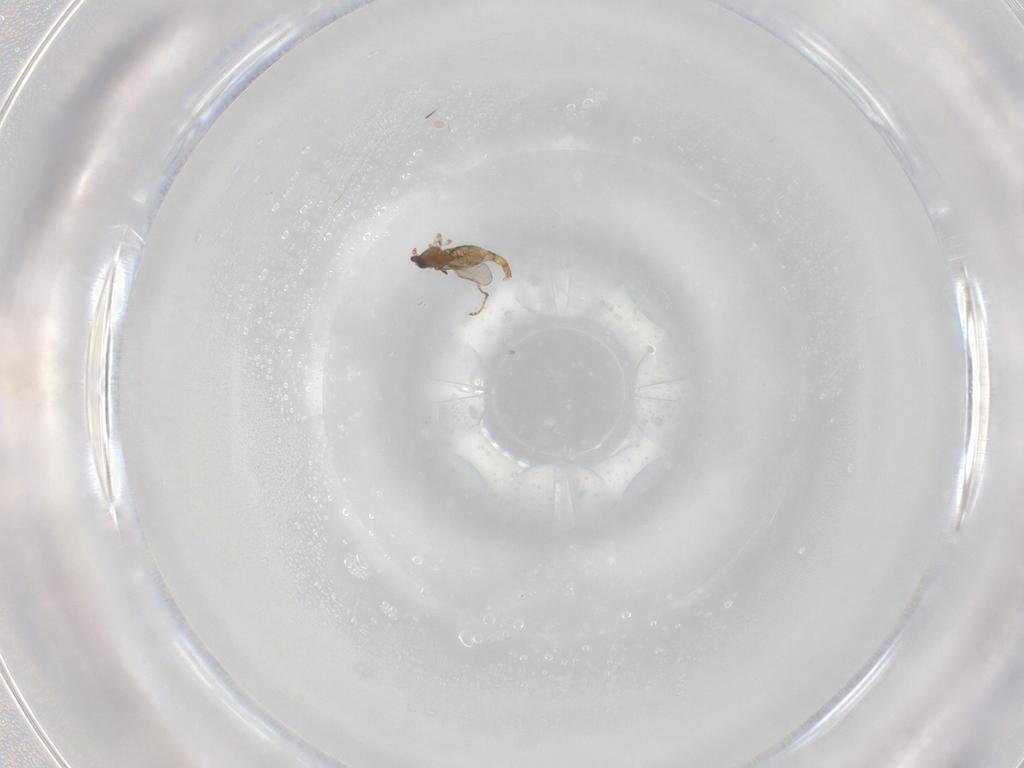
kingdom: Animalia
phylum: Arthropoda
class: Insecta
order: Diptera
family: Cecidomyiidae
